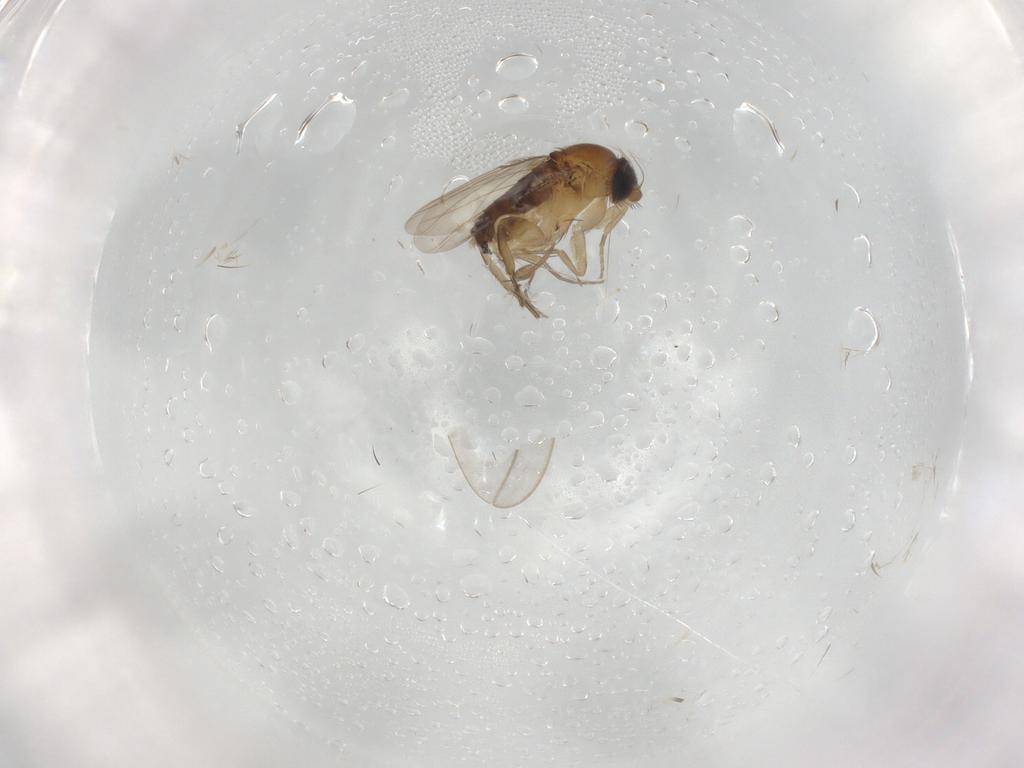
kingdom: Animalia
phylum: Arthropoda
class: Insecta
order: Diptera
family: Phoridae
